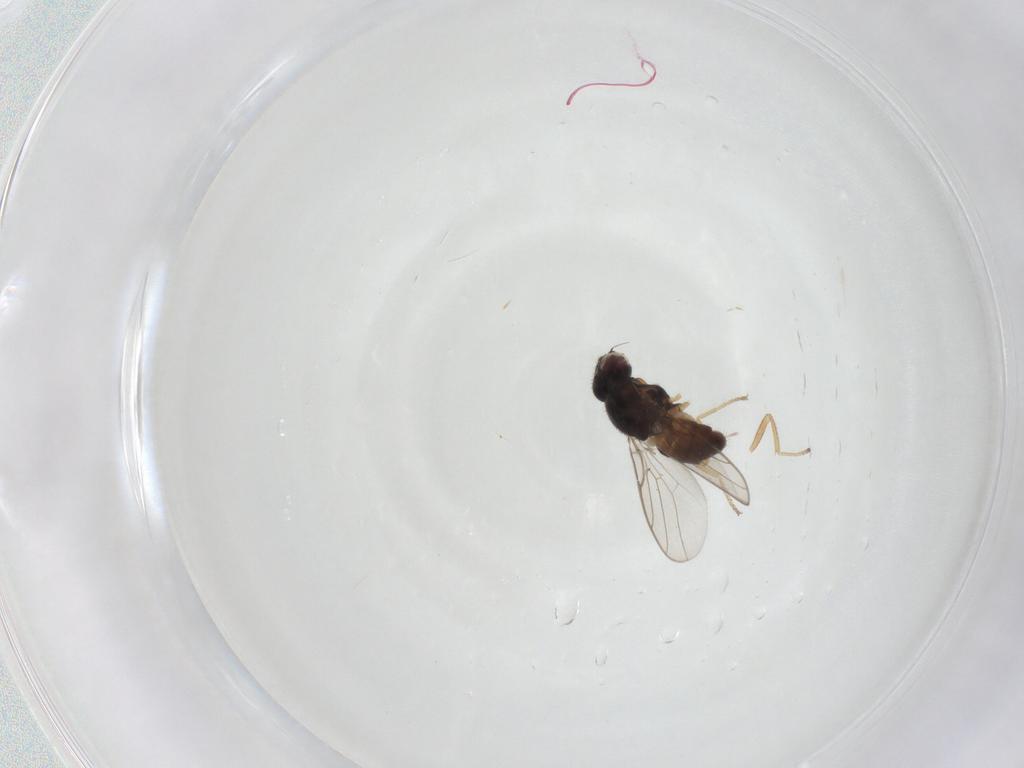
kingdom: Animalia
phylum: Arthropoda
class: Insecta
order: Diptera
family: Chloropidae
